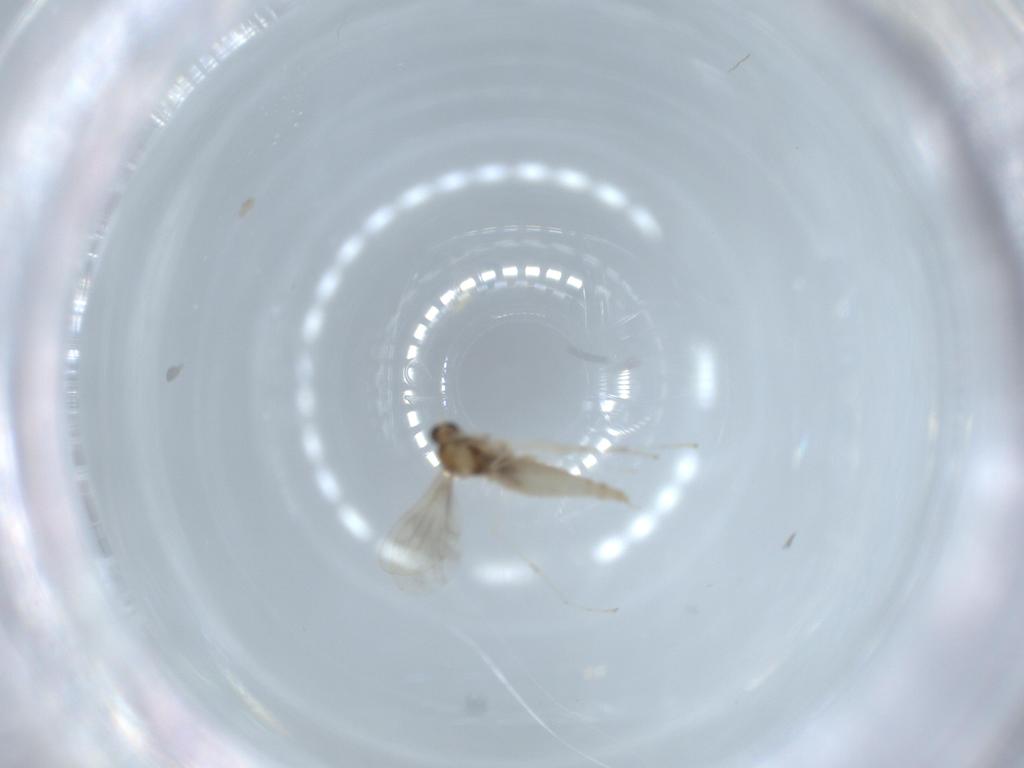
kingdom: Animalia
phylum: Arthropoda
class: Insecta
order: Diptera
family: Cecidomyiidae
